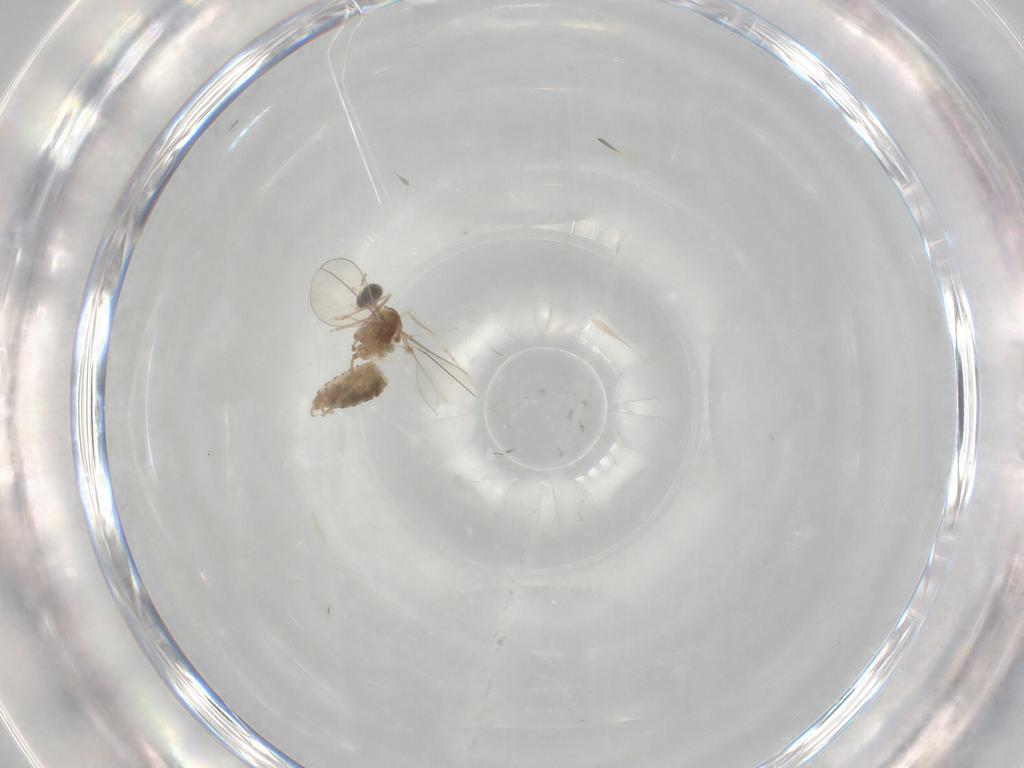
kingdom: Animalia
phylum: Arthropoda
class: Insecta
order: Diptera
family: Cecidomyiidae
